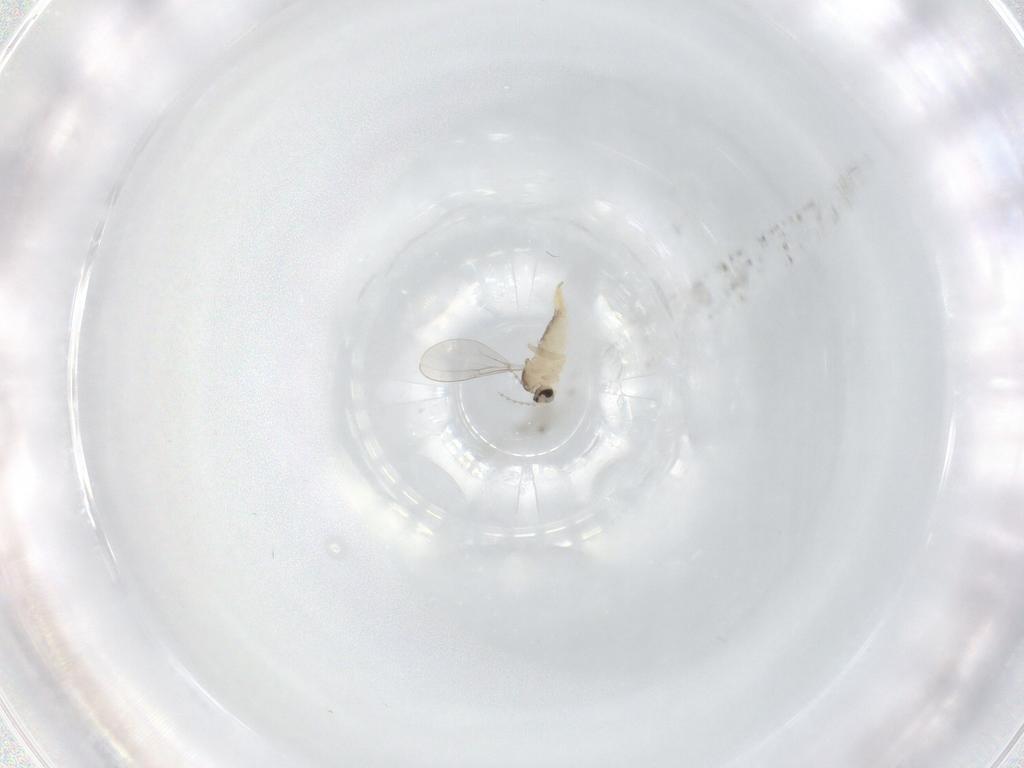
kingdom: Animalia
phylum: Arthropoda
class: Insecta
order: Diptera
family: Cecidomyiidae
